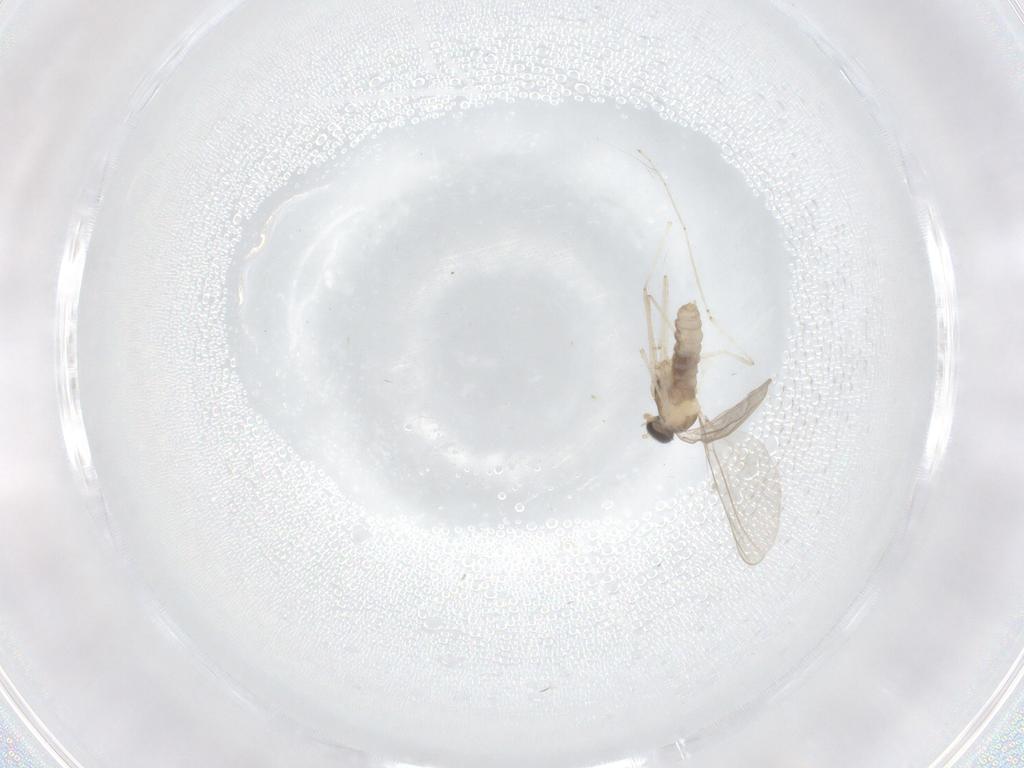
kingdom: Animalia
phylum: Arthropoda
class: Insecta
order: Diptera
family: Cecidomyiidae
